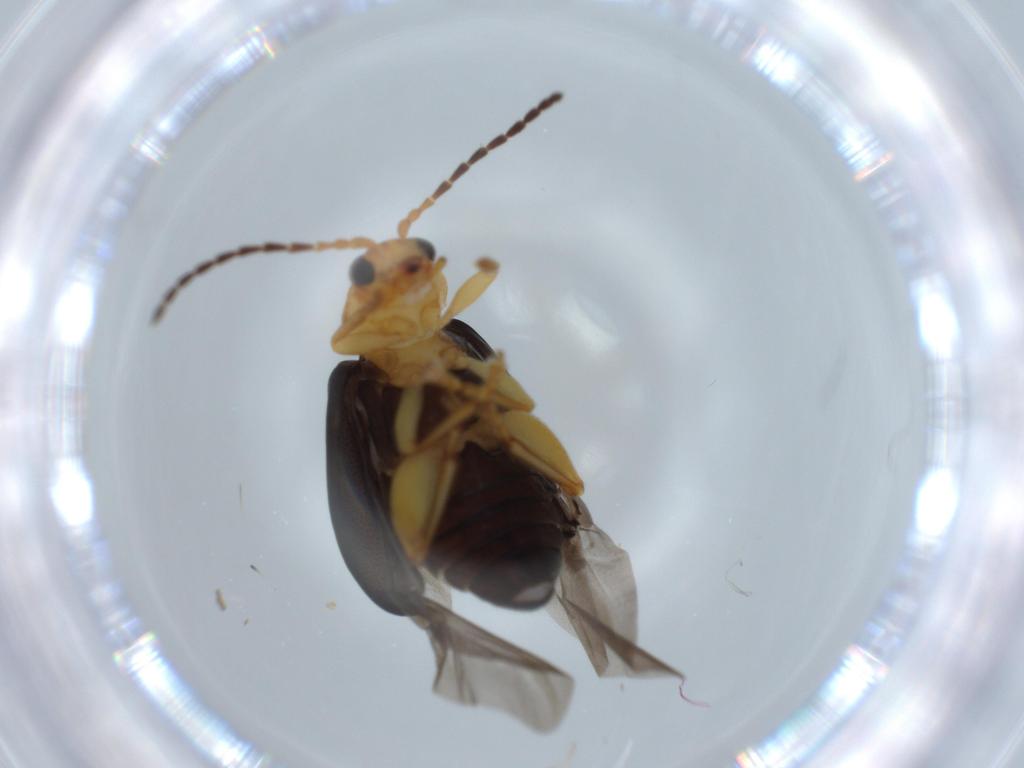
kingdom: Animalia
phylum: Arthropoda
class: Insecta
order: Coleoptera
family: Chrysomelidae
